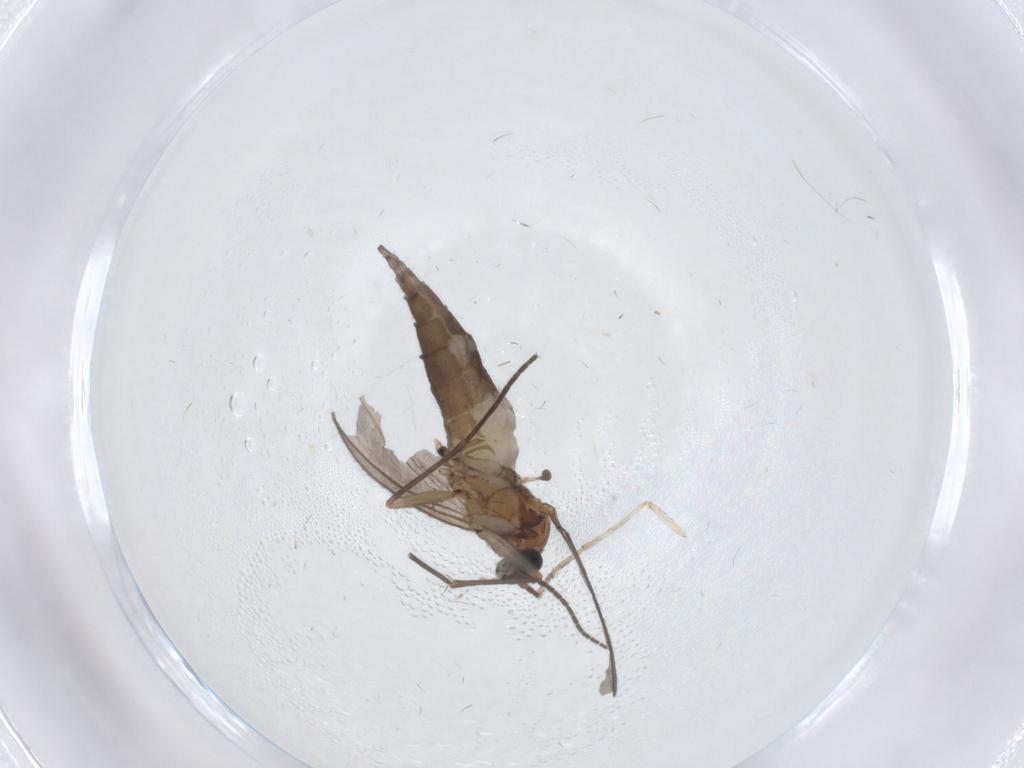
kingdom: Animalia
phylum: Arthropoda
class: Insecta
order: Diptera
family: Sciaridae
